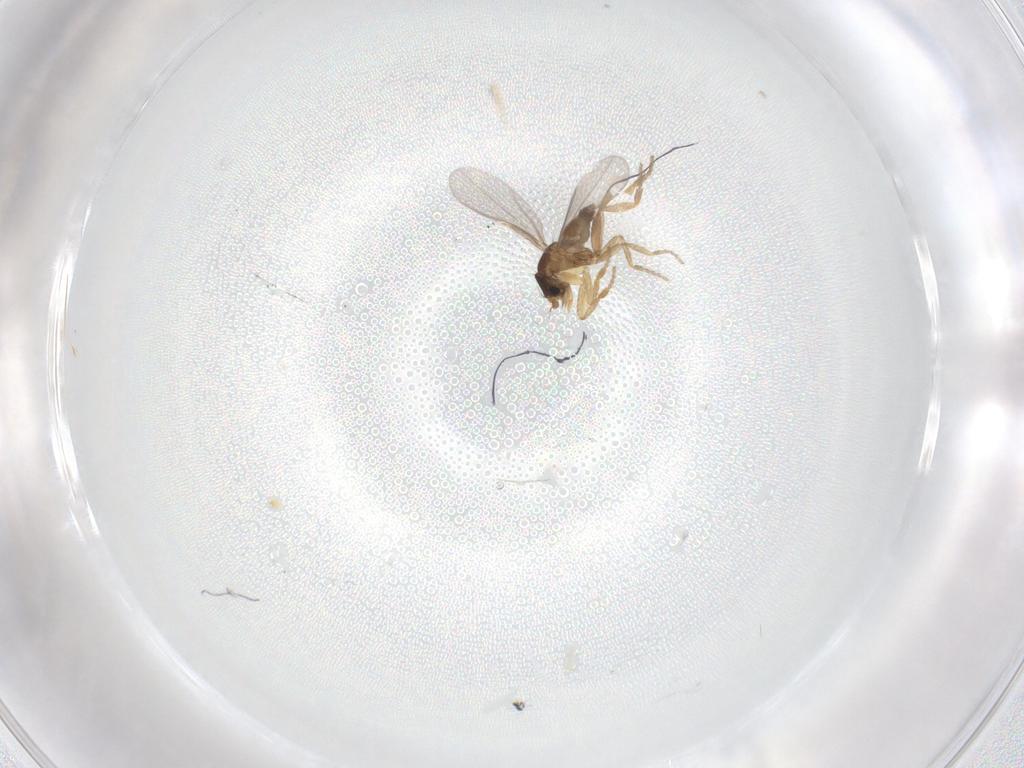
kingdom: Animalia
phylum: Arthropoda
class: Insecta
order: Diptera
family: Phoridae
